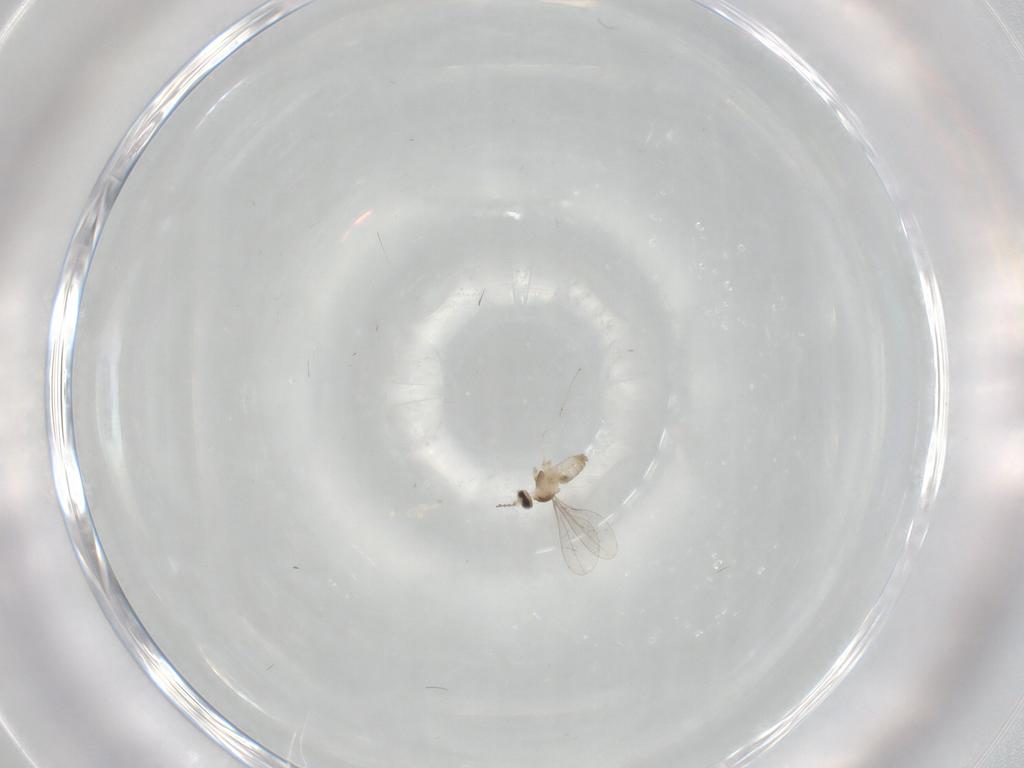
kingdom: Animalia
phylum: Arthropoda
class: Insecta
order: Diptera
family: Cecidomyiidae
